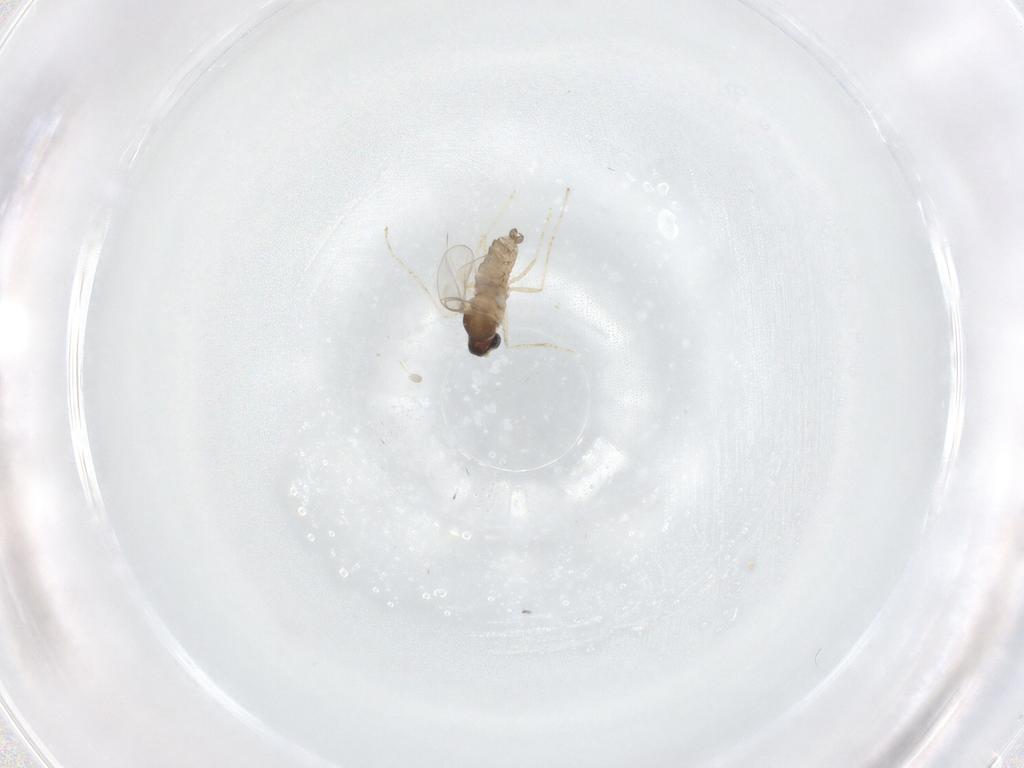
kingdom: Animalia
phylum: Arthropoda
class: Insecta
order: Diptera
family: Cecidomyiidae
